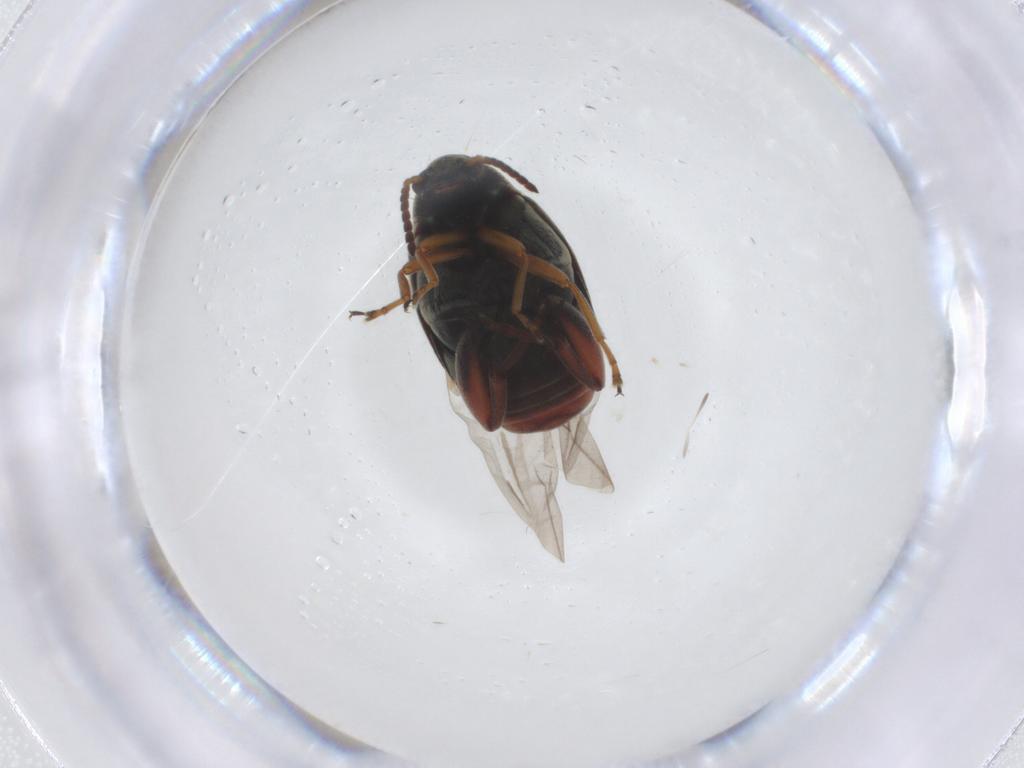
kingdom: Animalia
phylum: Arthropoda
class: Insecta
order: Coleoptera
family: Chrysomelidae
